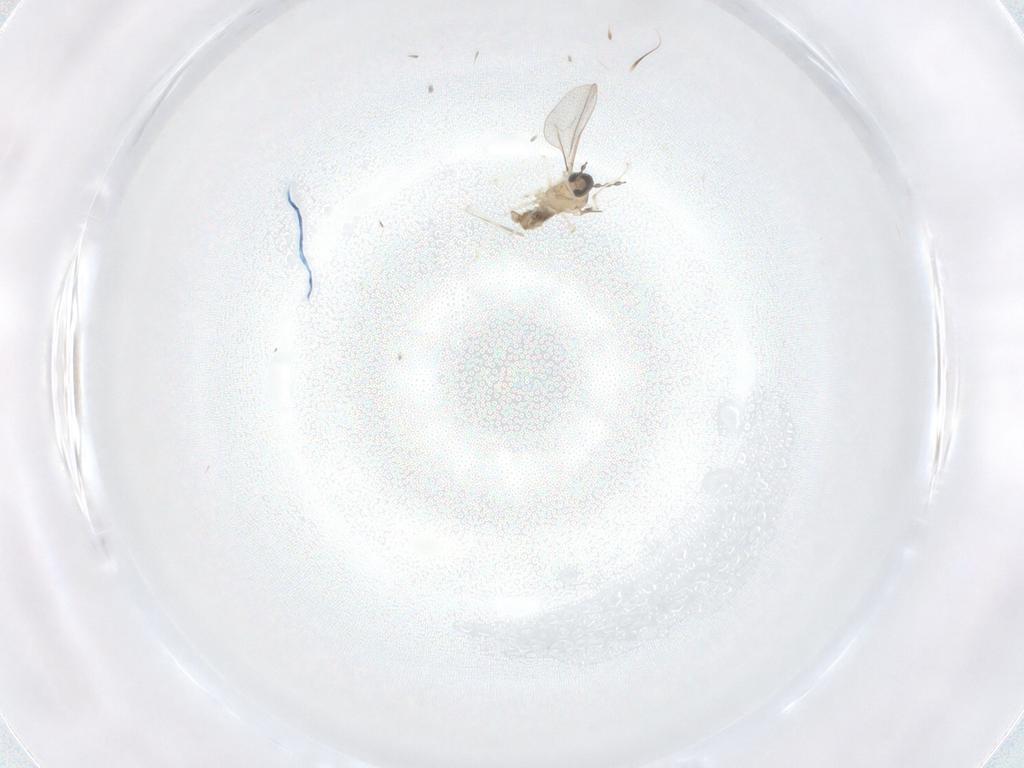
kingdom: Animalia
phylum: Arthropoda
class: Insecta
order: Diptera
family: Cecidomyiidae
